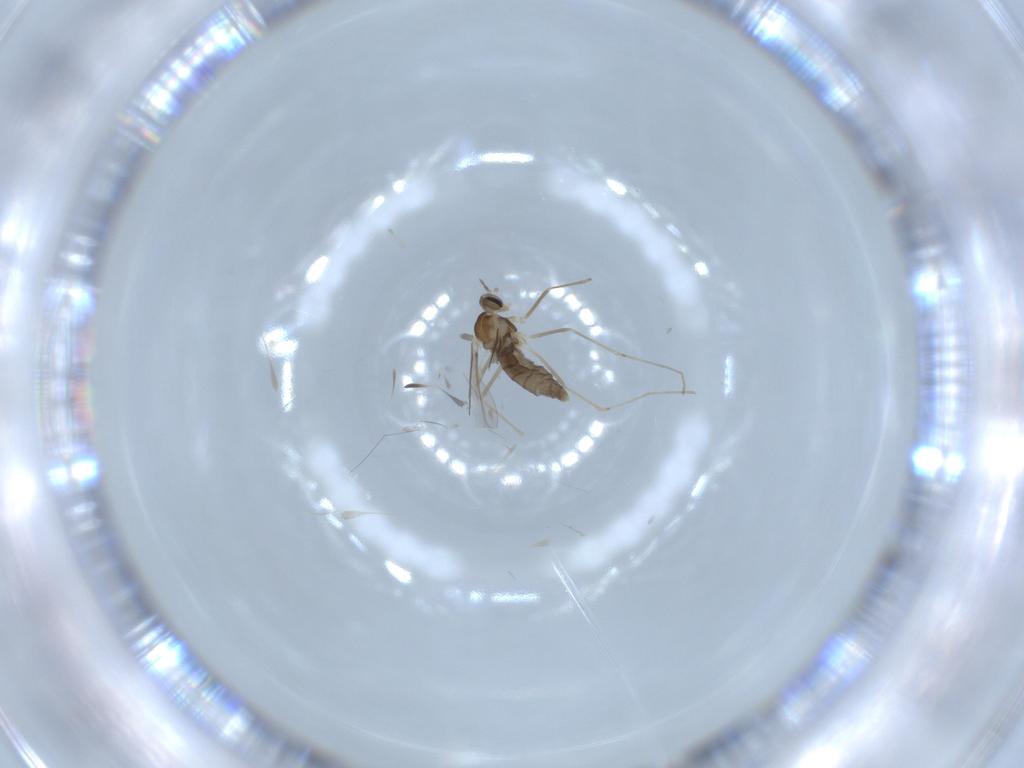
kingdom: Animalia
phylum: Arthropoda
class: Insecta
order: Diptera
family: Cecidomyiidae
